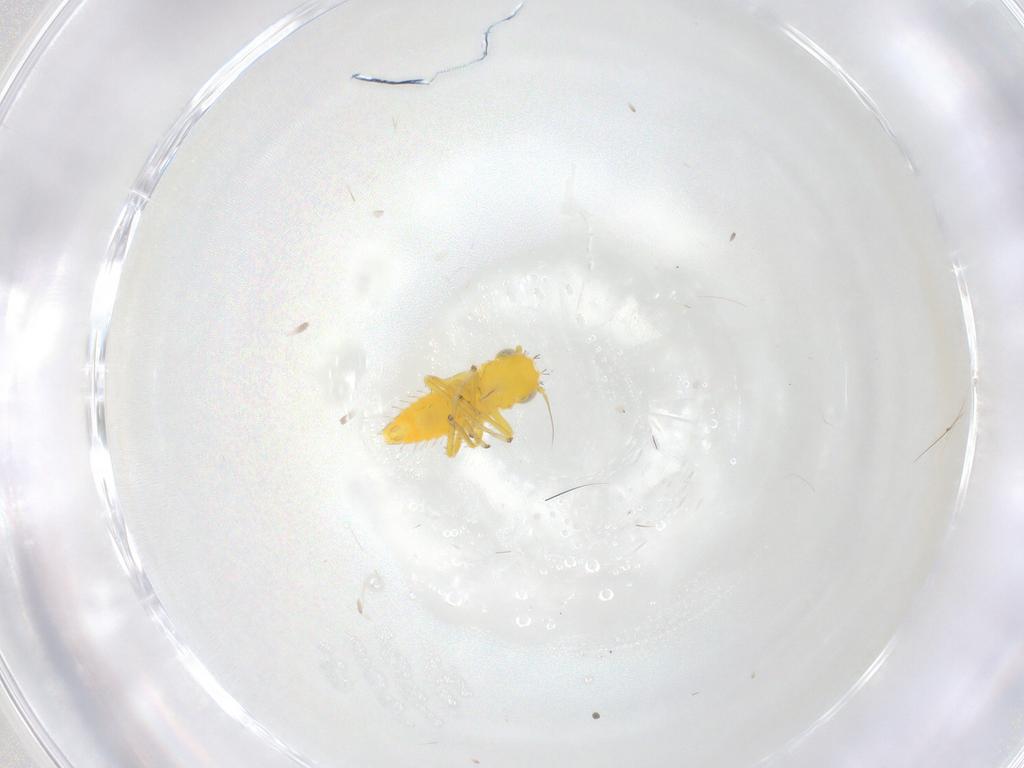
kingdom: Animalia
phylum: Arthropoda
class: Insecta
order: Hemiptera
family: Cicadellidae
